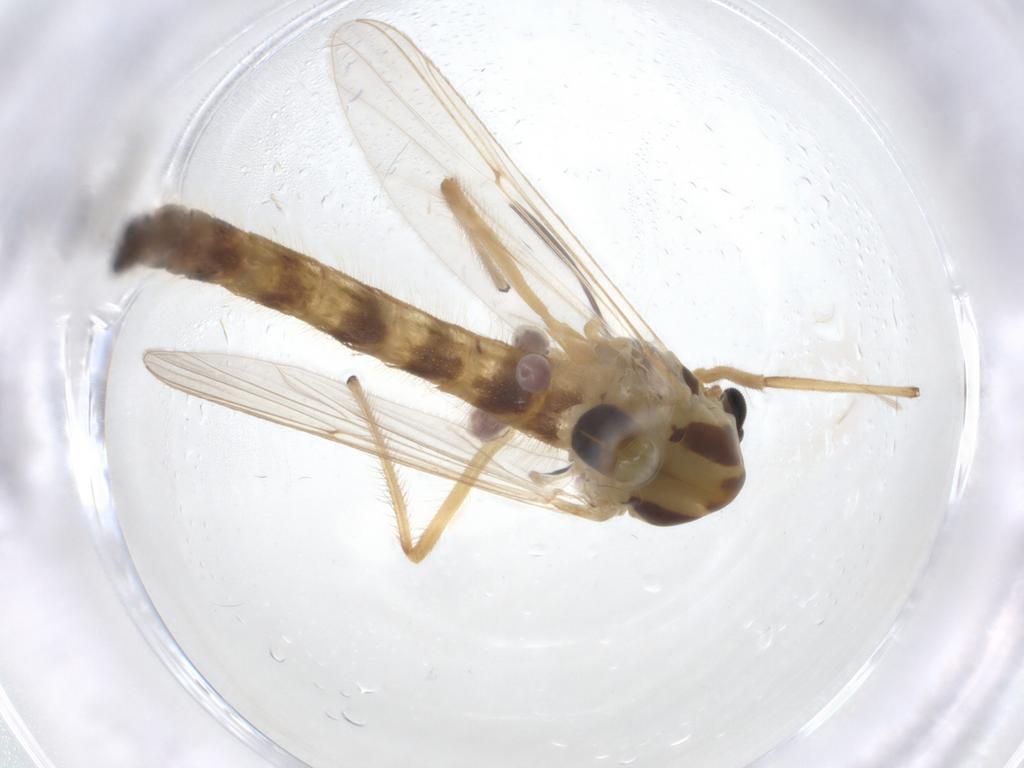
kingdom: Animalia
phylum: Arthropoda
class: Insecta
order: Diptera
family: Chironomidae
